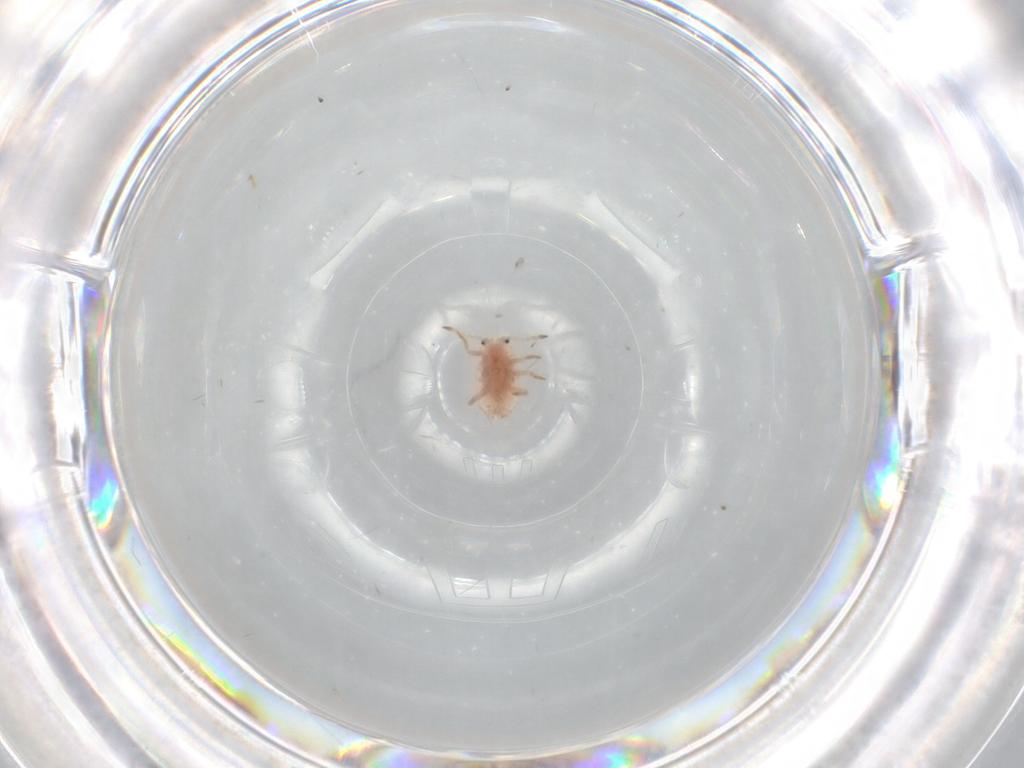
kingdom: Animalia
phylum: Arthropoda
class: Insecta
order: Hemiptera
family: Coccoidea_incertae_sedis
